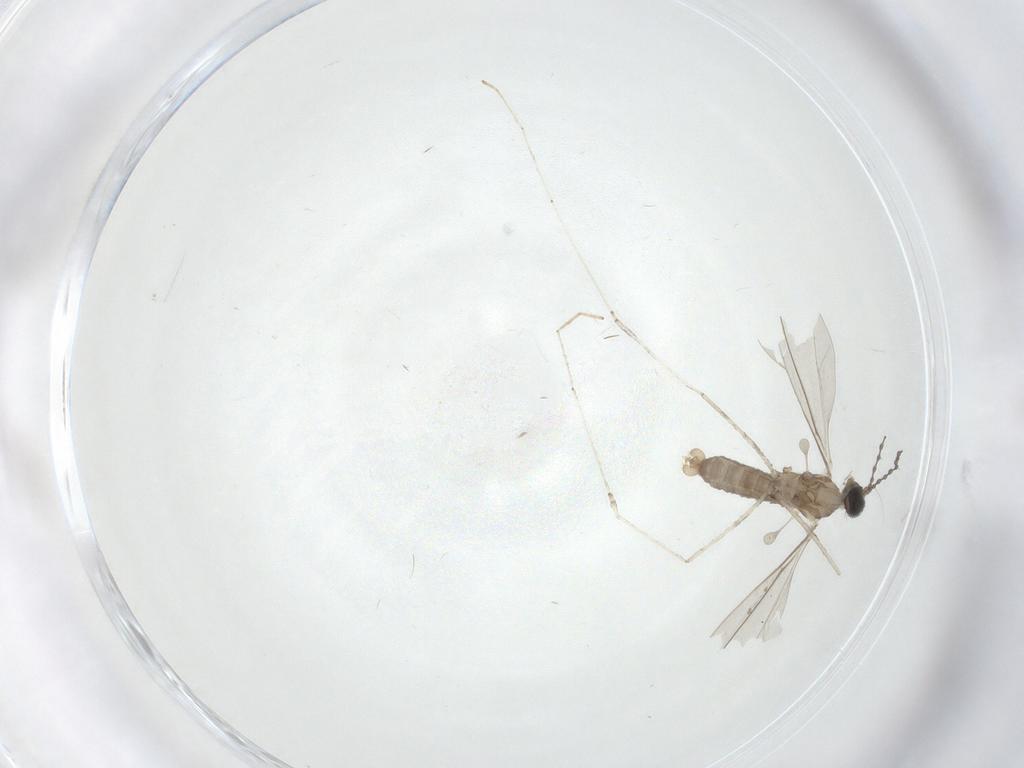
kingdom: Animalia
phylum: Arthropoda
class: Insecta
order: Diptera
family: Cecidomyiidae
